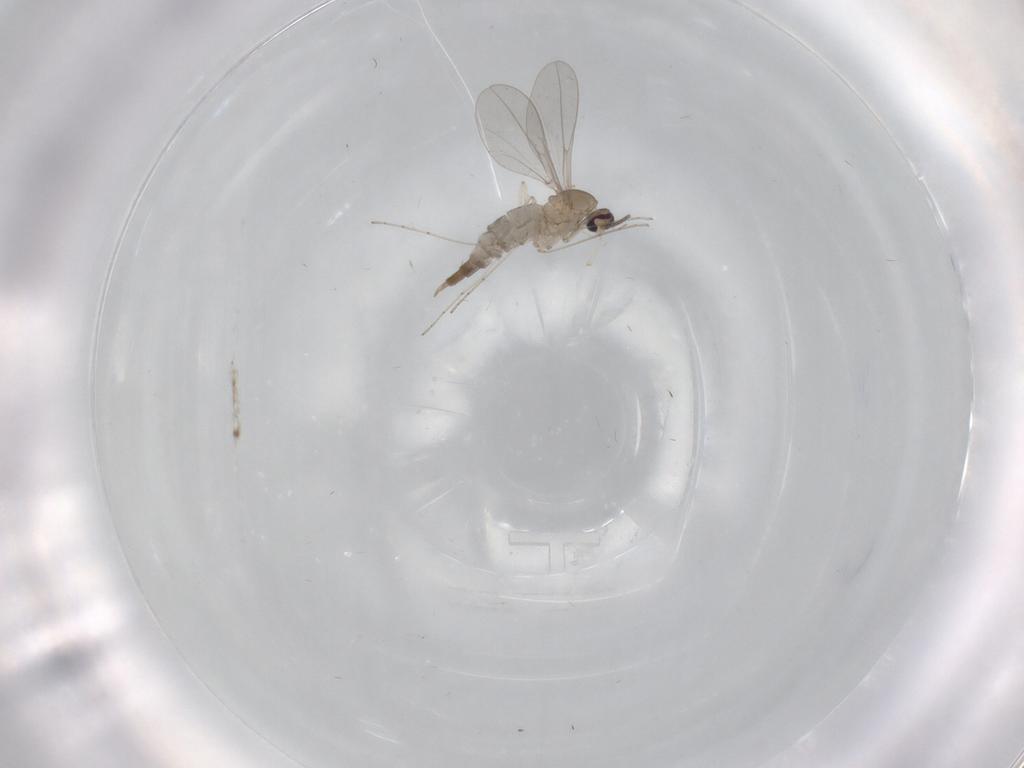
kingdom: Animalia
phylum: Arthropoda
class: Insecta
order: Diptera
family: Cecidomyiidae
